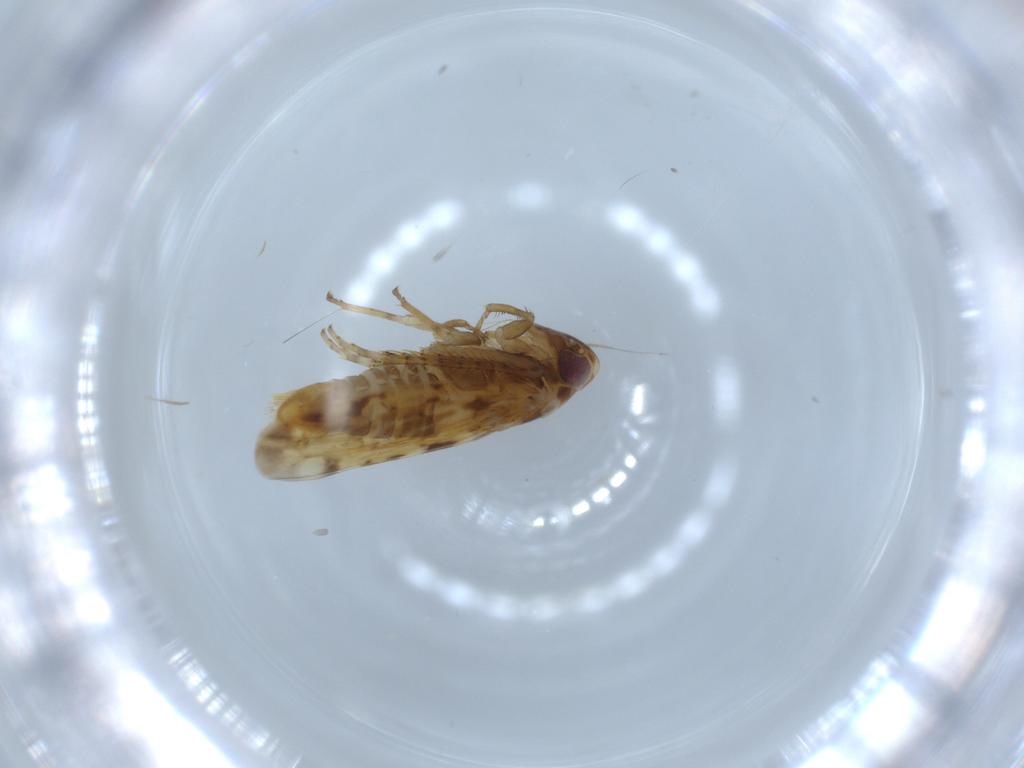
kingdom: Animalia
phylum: Arthropoda
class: Insecta
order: Hemiptera
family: Cicadellidae
